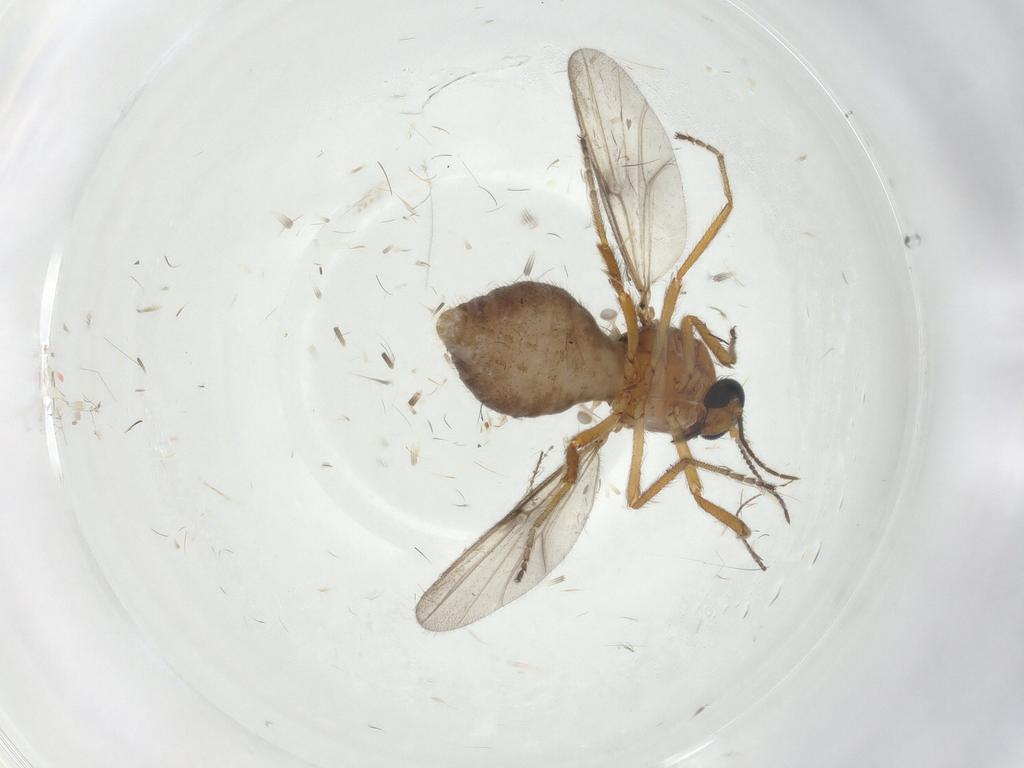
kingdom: Animalia
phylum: Arthropoda
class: Insecta
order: Diptera
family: Ceratopogonidae
